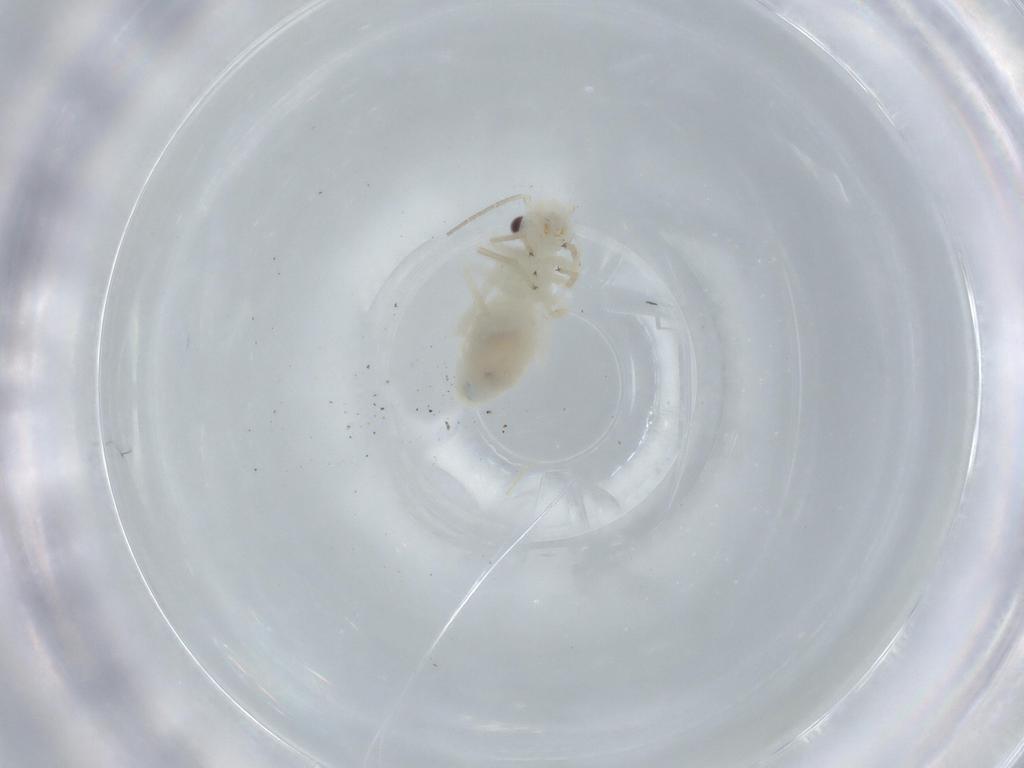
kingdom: Animalia
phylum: Arthropoda
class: Insecta
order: Psocodea
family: Caeciliusidae
